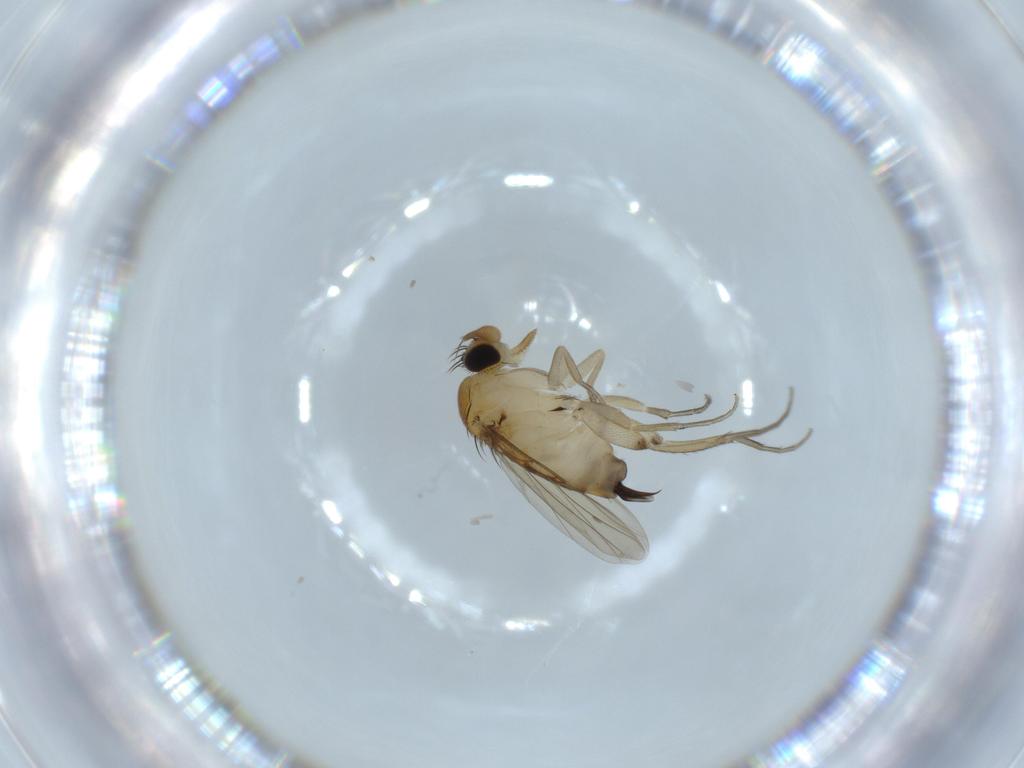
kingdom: Animalia
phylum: Arthropoda
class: Insecta
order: Diptera
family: Phoridae
